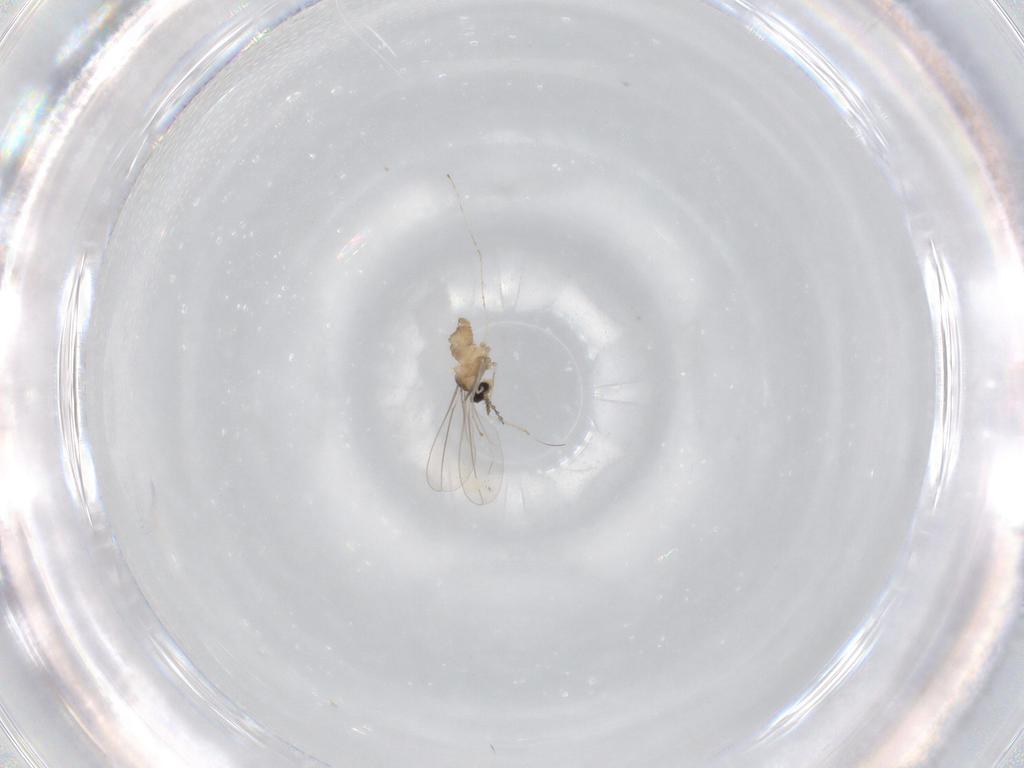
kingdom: Animalia
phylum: Arthropoda
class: Insecta
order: Diptera
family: Cecidomyiidae
